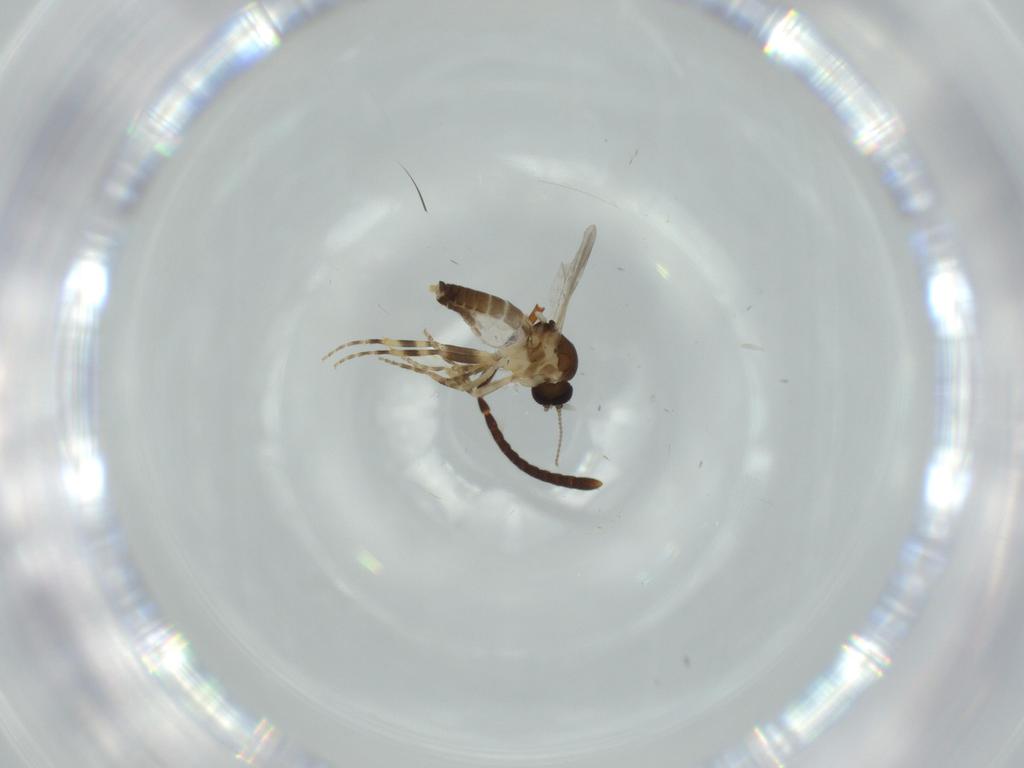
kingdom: Animalia
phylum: Arthropoda
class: Insecta
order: Diptera
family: Ceratopogonidae
